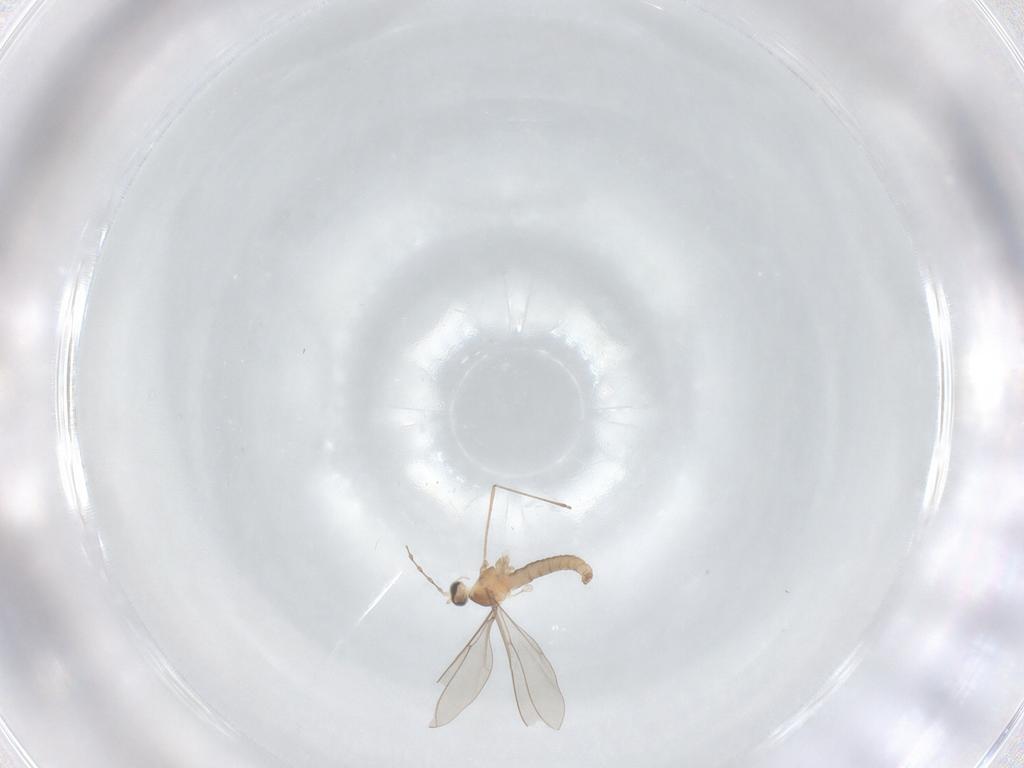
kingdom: Animalia
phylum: Arthropoda
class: Insecta
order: Diptera
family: Cecidomyiidae
